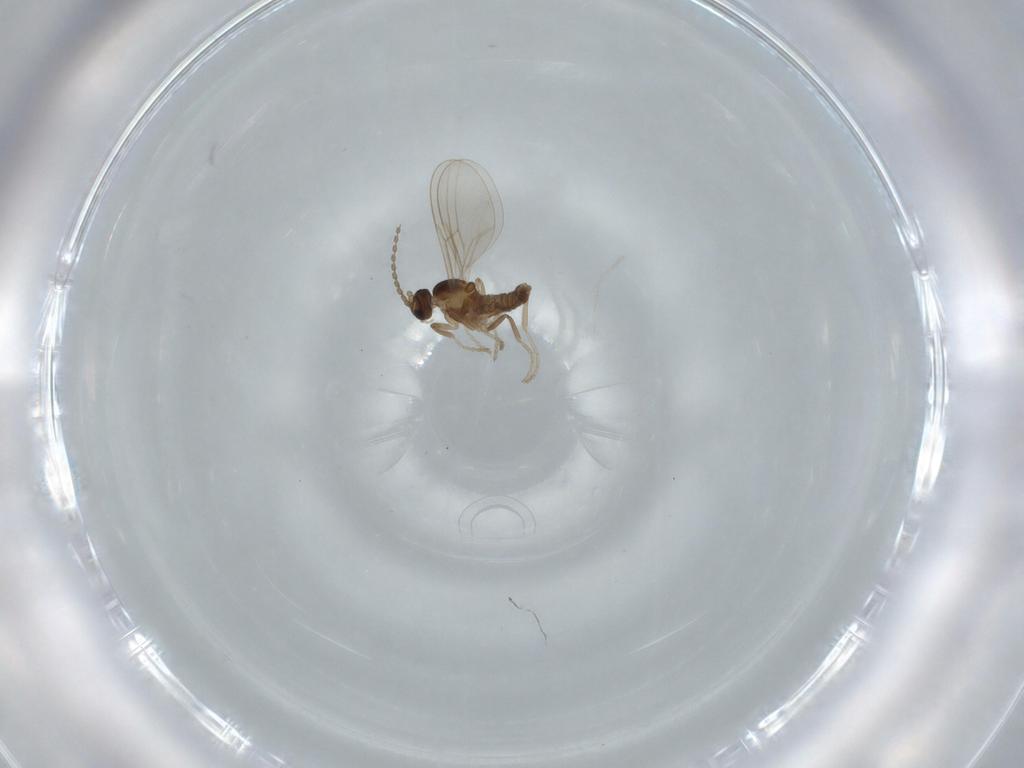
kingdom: Animalia
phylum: Arthropoda
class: Insecta
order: Diptera
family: Cecidomyiidae
